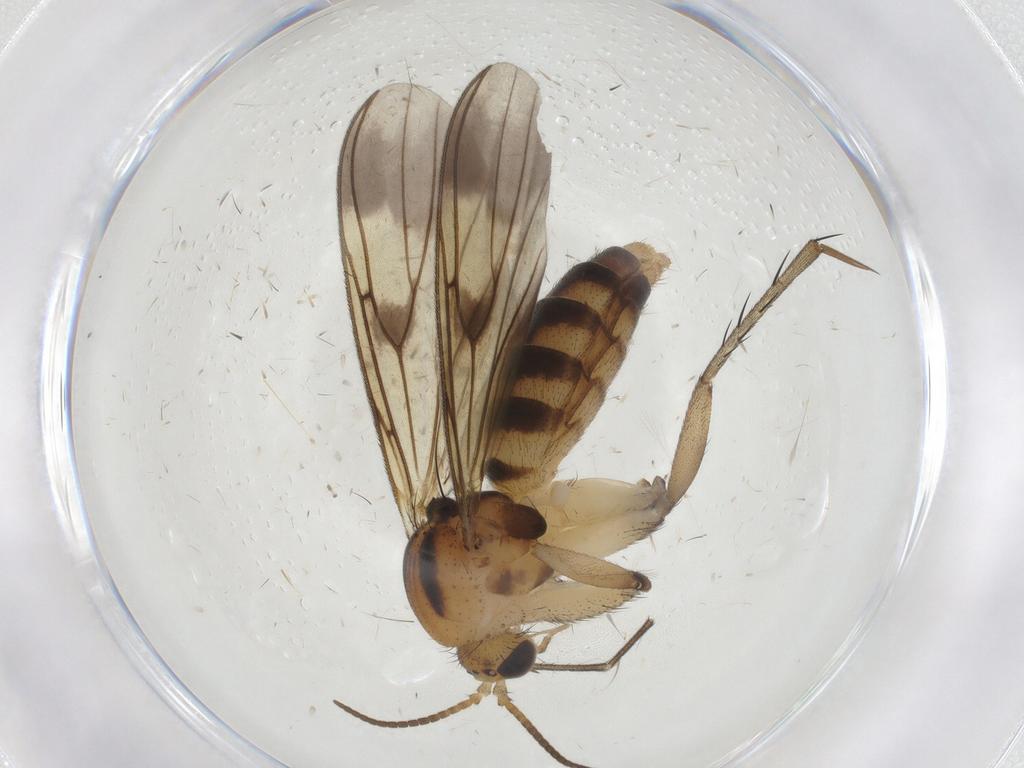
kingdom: Animalia
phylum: Arthropoda
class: Insecta
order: Diptera
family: Mycetophilidae
